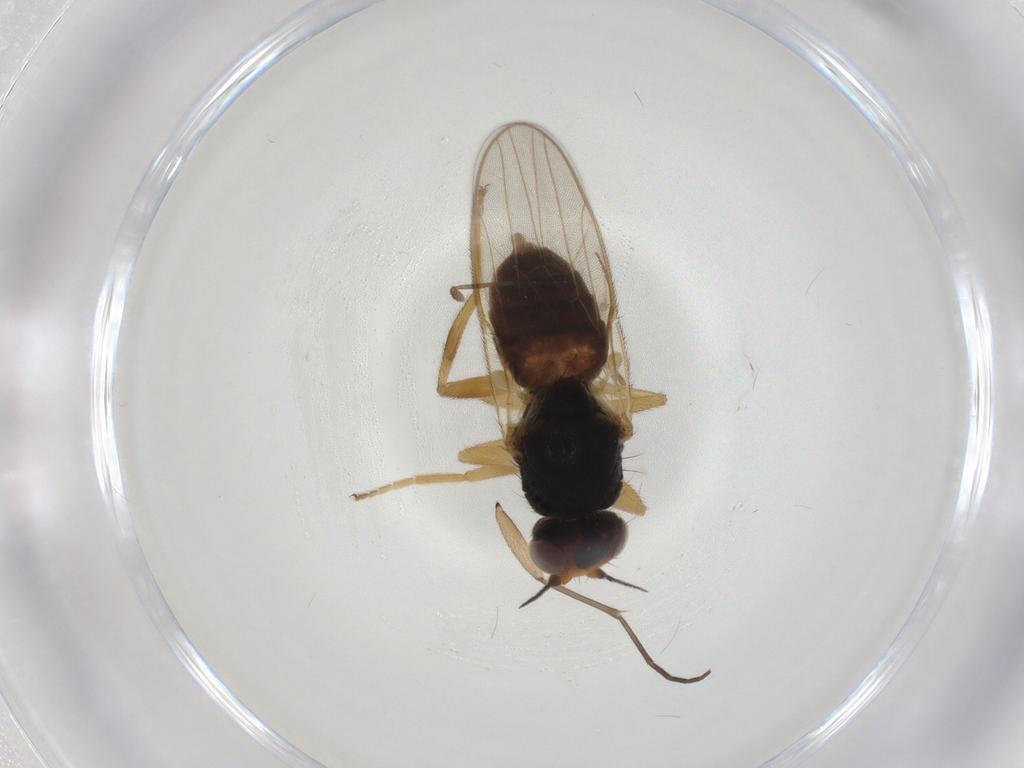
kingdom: Animalia
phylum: Arthropoda
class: Insecta
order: Diptera
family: Chloropidae
